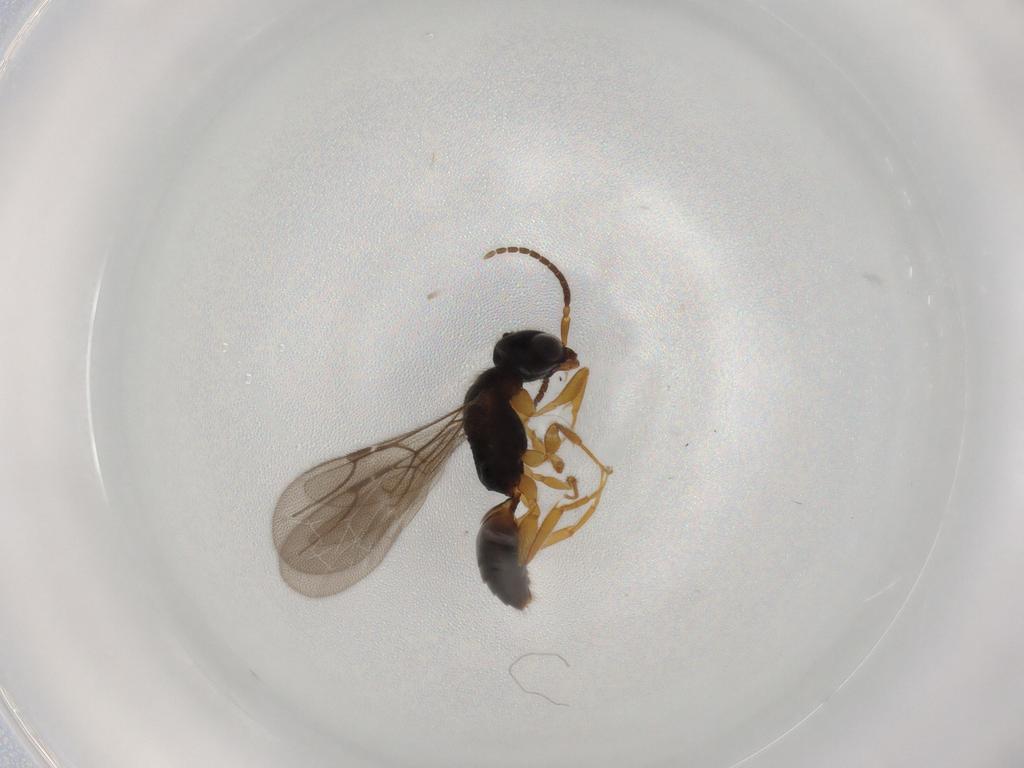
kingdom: Animalia
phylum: Arthropoda
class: Insecta
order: Hymenoptera
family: Bethylidae
